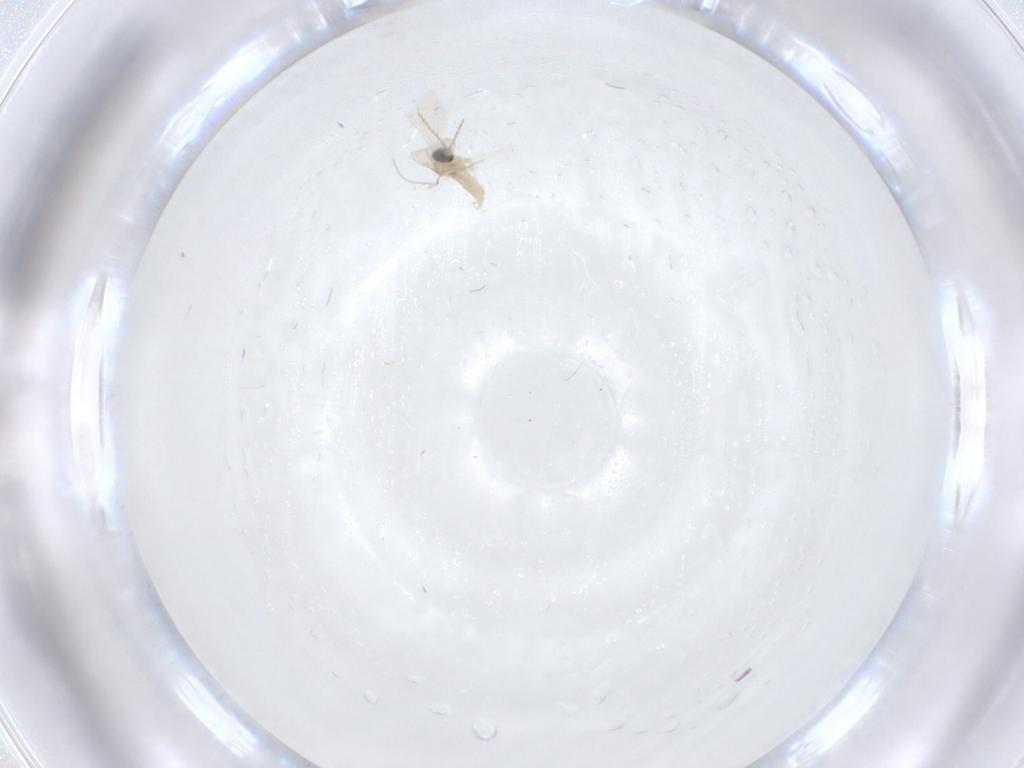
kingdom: Animalia
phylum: Arthropoda
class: Insecta
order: Diptera
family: Cecidomyiidae
